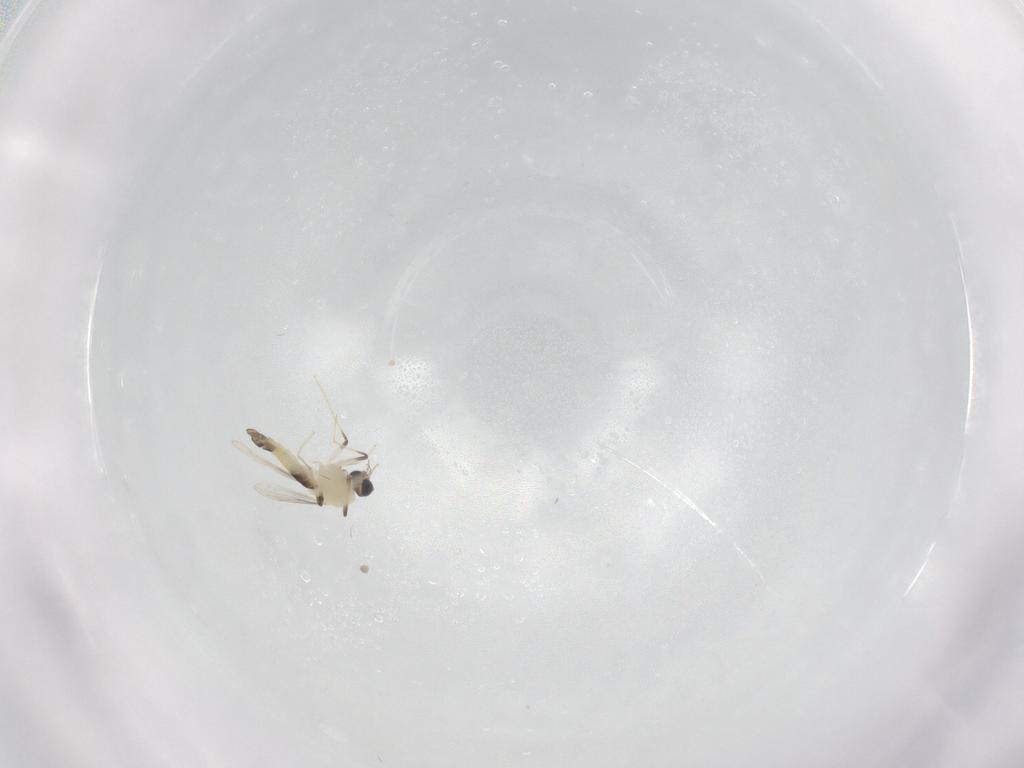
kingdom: Animalia
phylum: Arthropoda
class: Insecta
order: Diptera
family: Chironomidae
